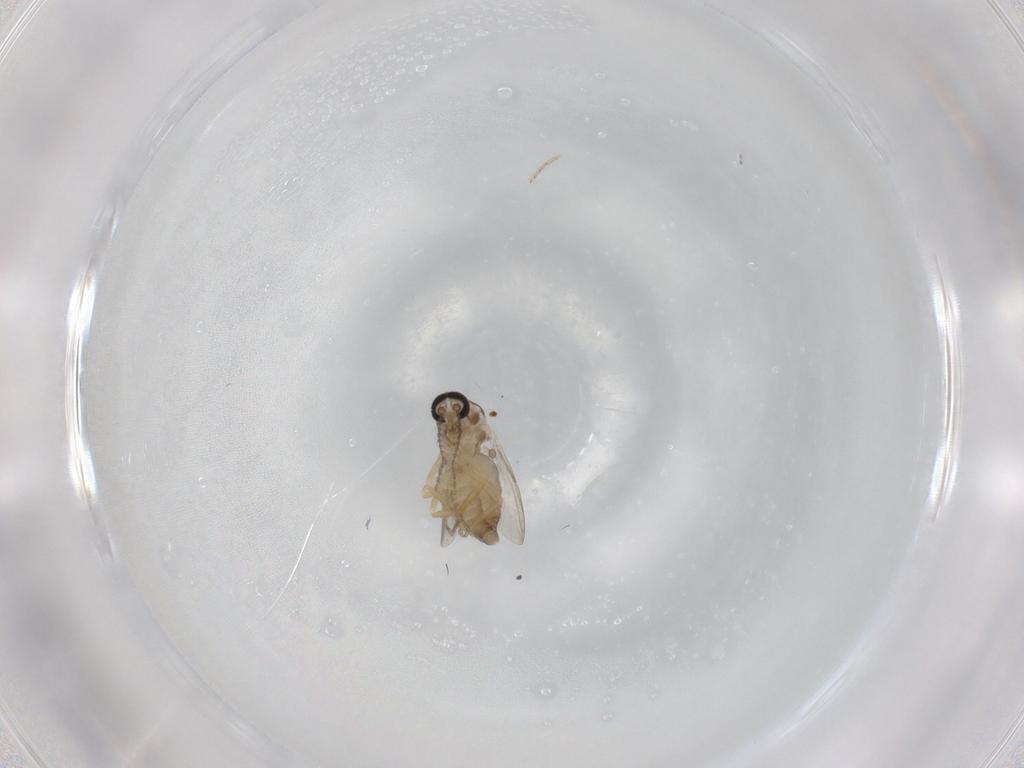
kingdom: Animalia
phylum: Arthropoda
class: Insecta
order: Diptera
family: Ceratopogonidae
